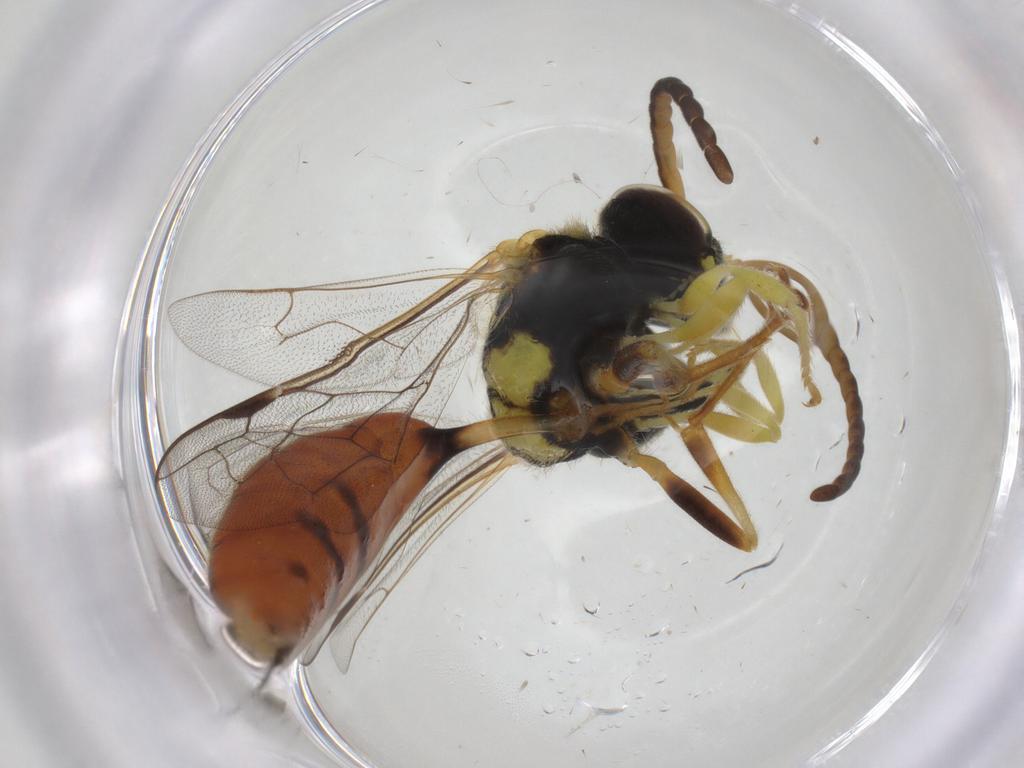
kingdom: Animalia
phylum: Arthropoda
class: Insecta
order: Hymenoptera
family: Crabronidae
